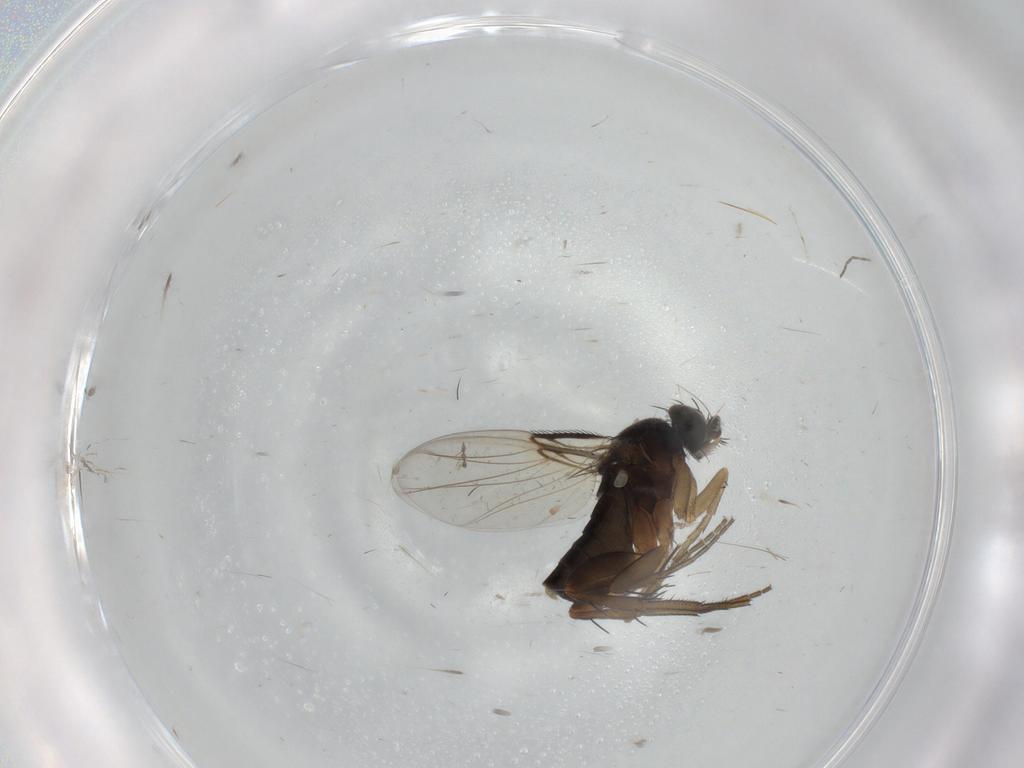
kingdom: Animalia
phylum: Arthropoda
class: Insecta
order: Diptera
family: Phoridae
